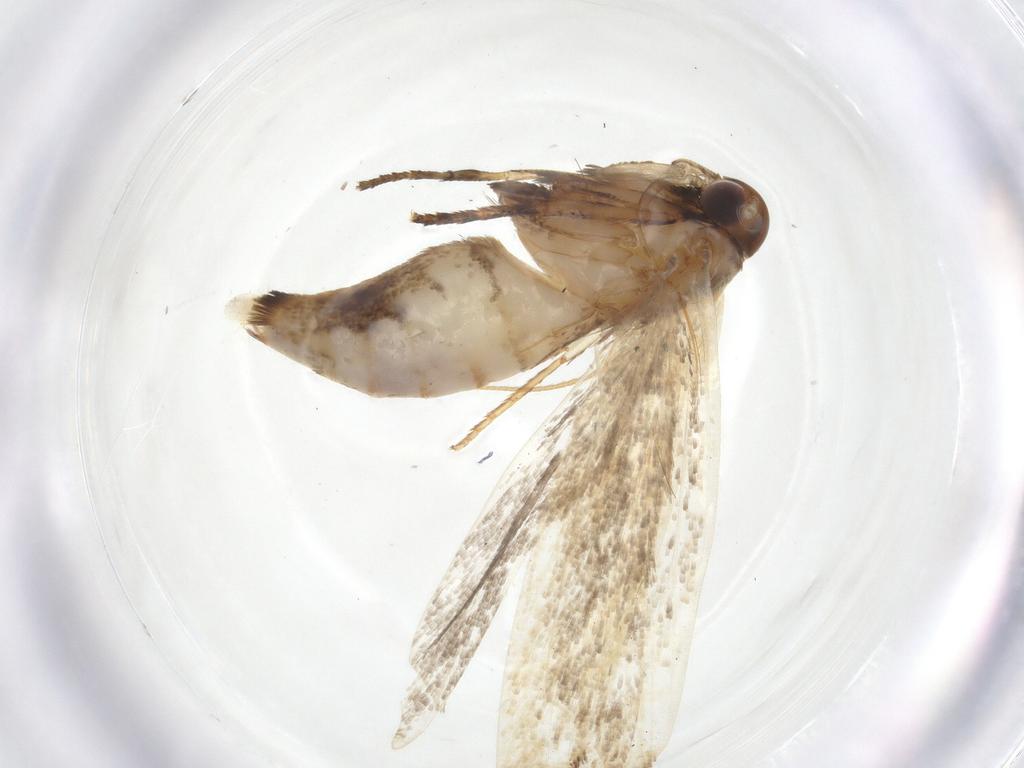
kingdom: Animalia
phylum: Arthropoda
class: Insecta
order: Lepidoptera
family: Gelechiidae
